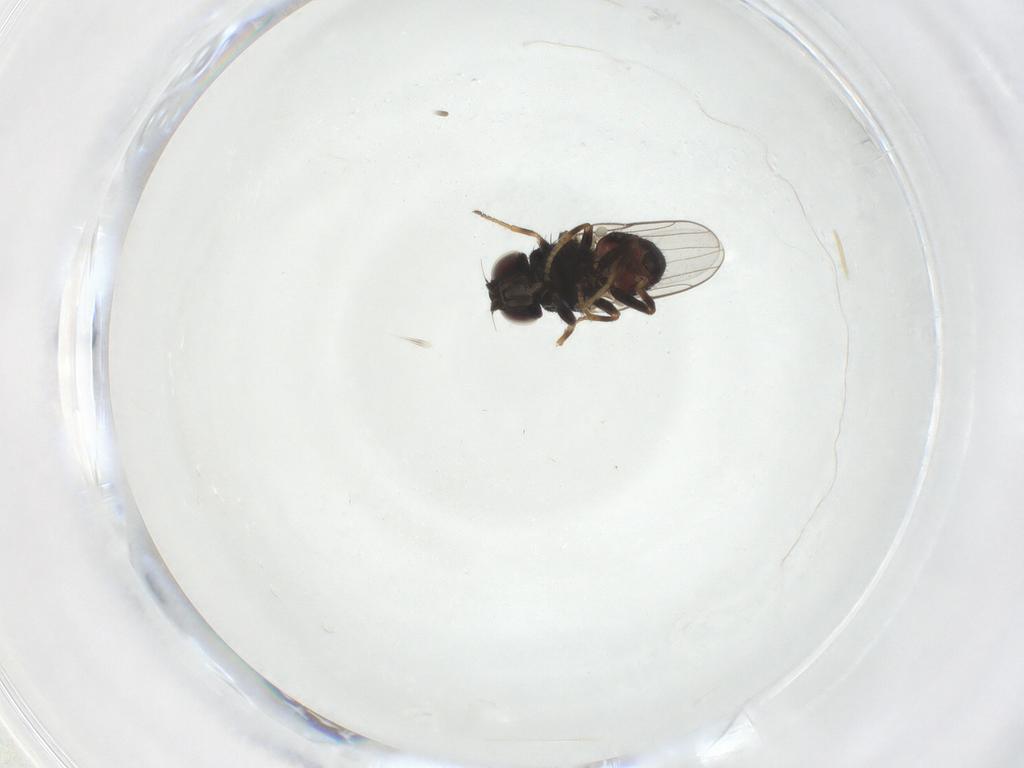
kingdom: Animalia
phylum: Arthropoda
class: Insecta
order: Diptera
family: Chloropidae
